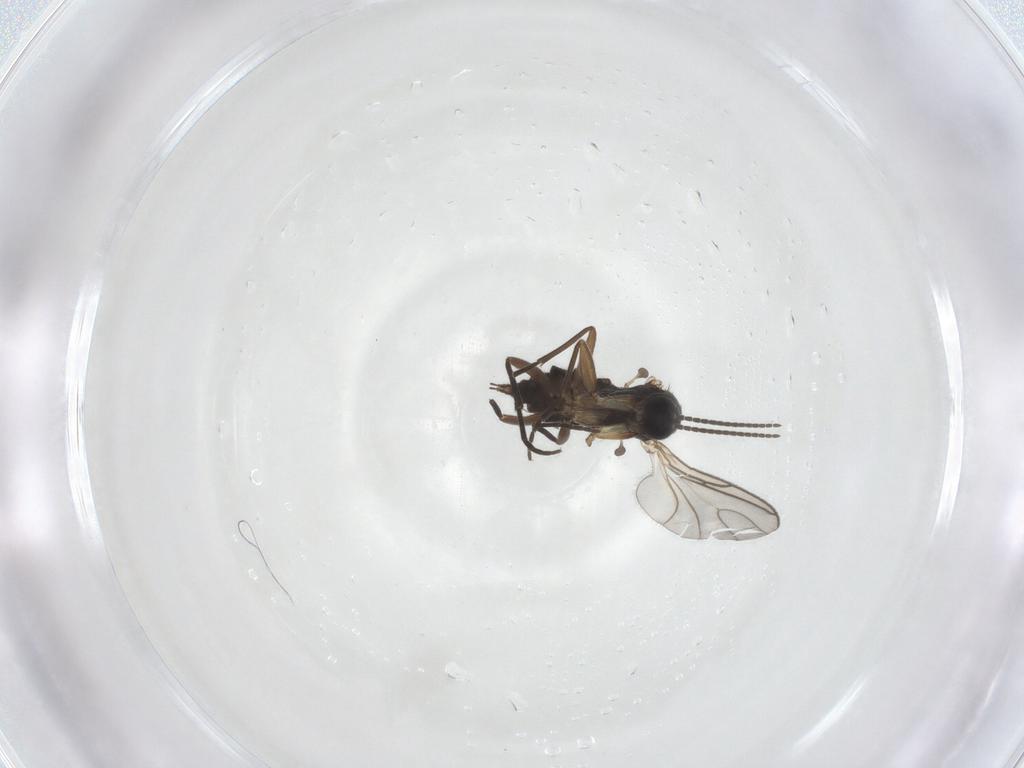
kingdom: Animalia
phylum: Arthropoda
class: Insecta
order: Diptera
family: Sciaridae
